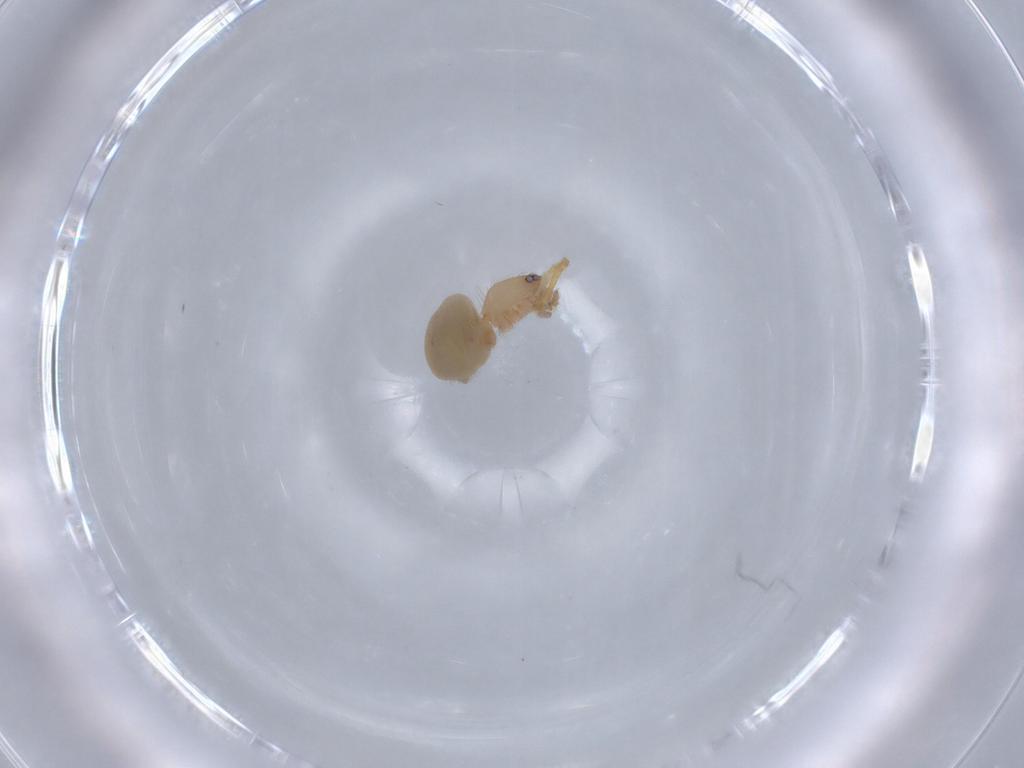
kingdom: Animalia
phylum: Arthropoda
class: Arachnida
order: Araneae
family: Oonopidae
